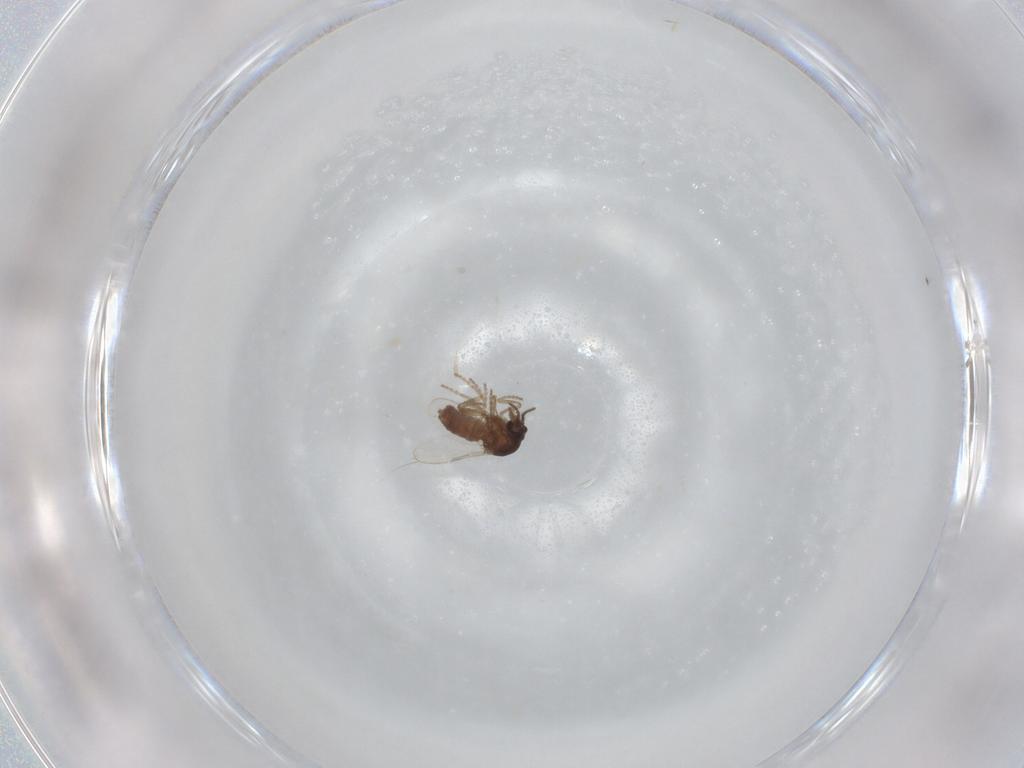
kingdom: Animalia
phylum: Arthropoda
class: Insecta
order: Diptera
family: Ceratopogonidae
